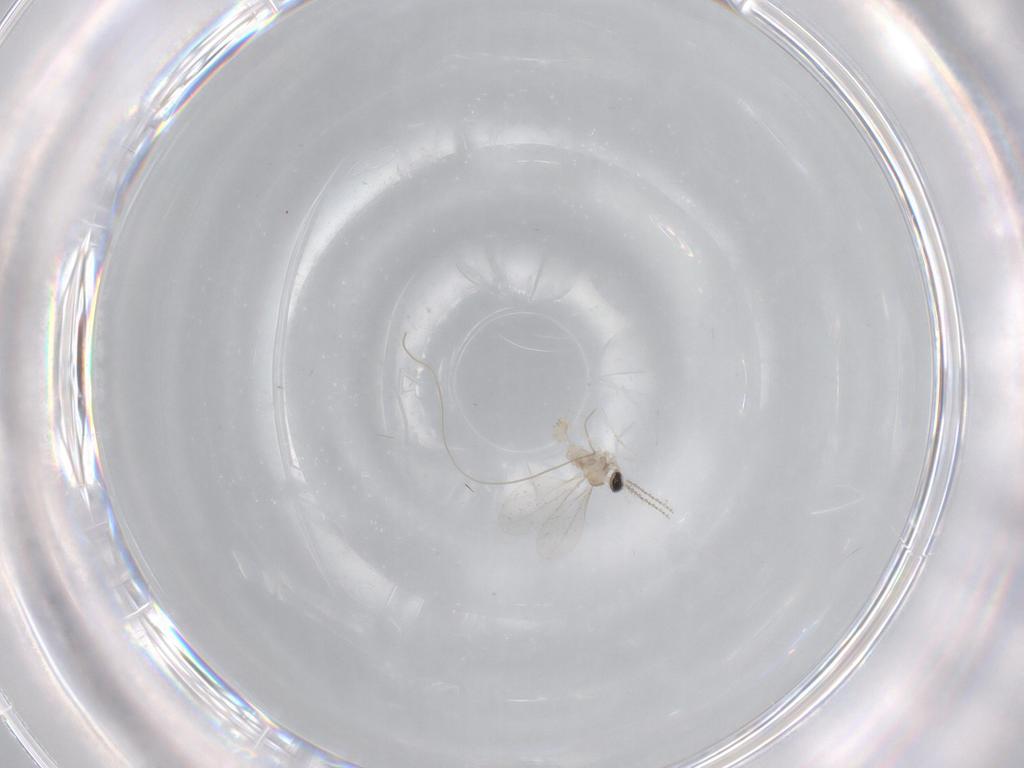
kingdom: Animalia
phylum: Arthropoda
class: Insecta
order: Diptera
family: Cecidomyiidae
